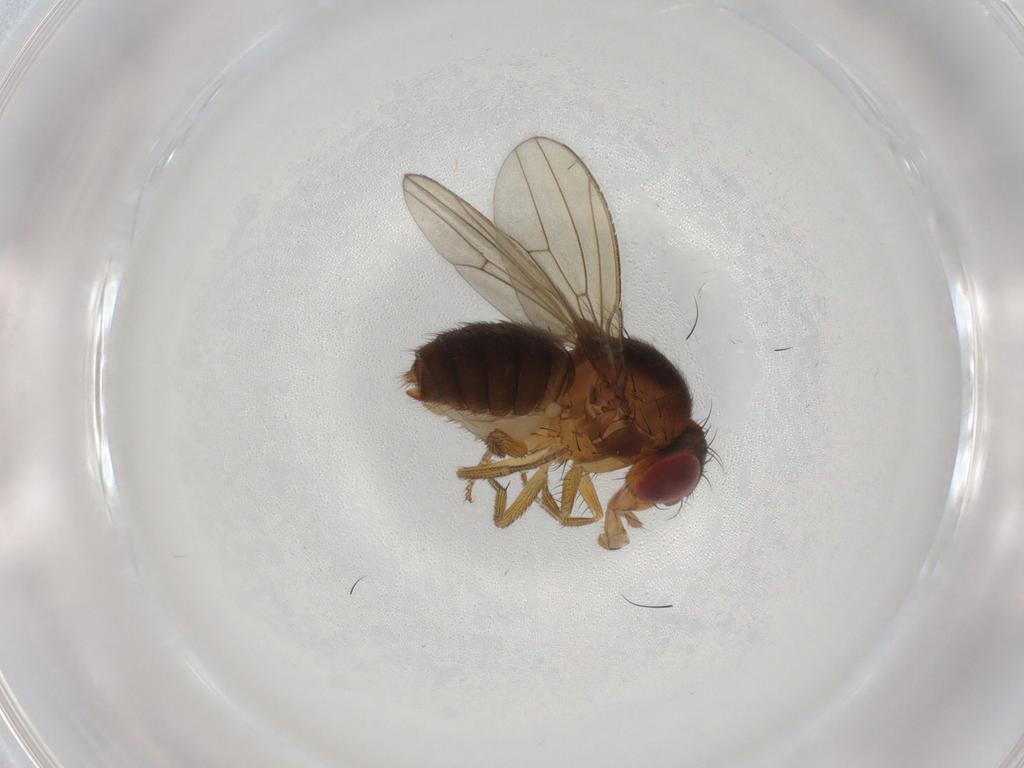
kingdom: Animalia
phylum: Arthropoda
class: Insecta
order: Diptera
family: Drosophilidae
